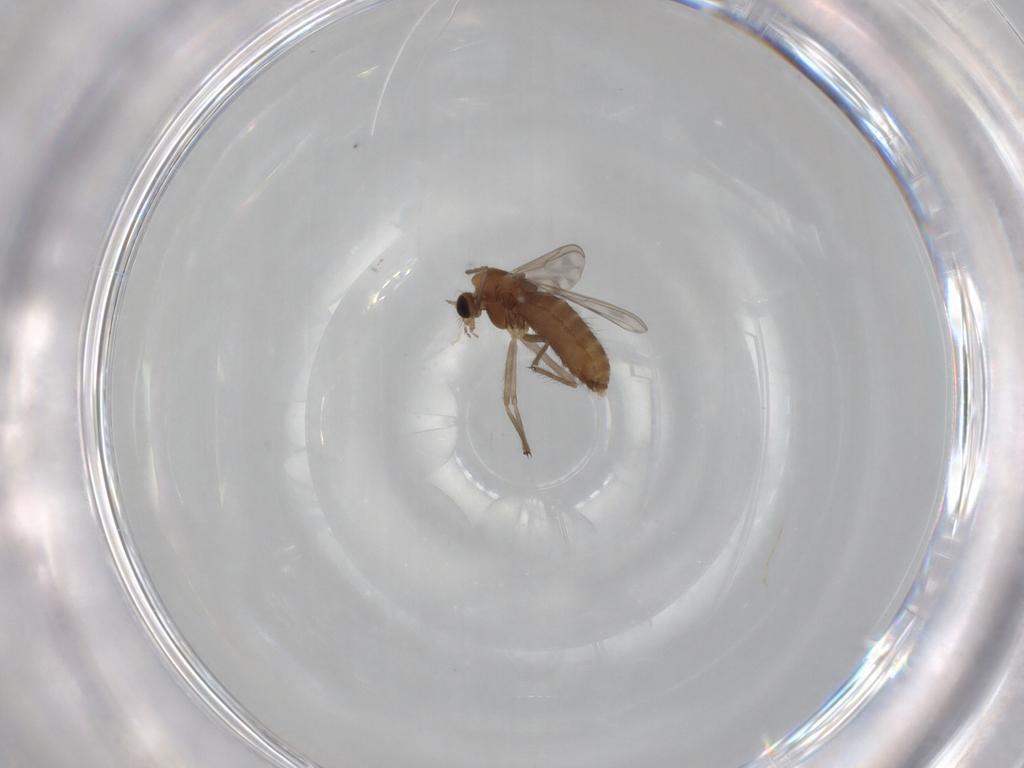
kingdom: Animalia
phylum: Arthropoda
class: Insecta
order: Diptera
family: Chironomidae
